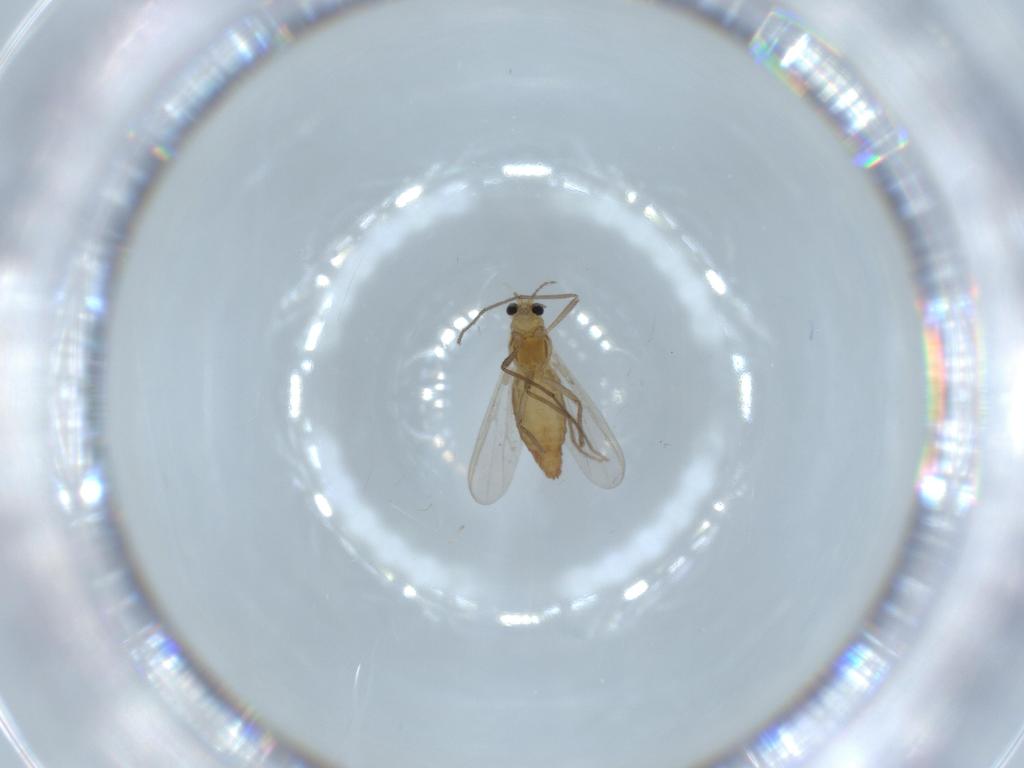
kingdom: Animalia
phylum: Arthropoda
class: Insecta
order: Diptera
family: Chironomidae
